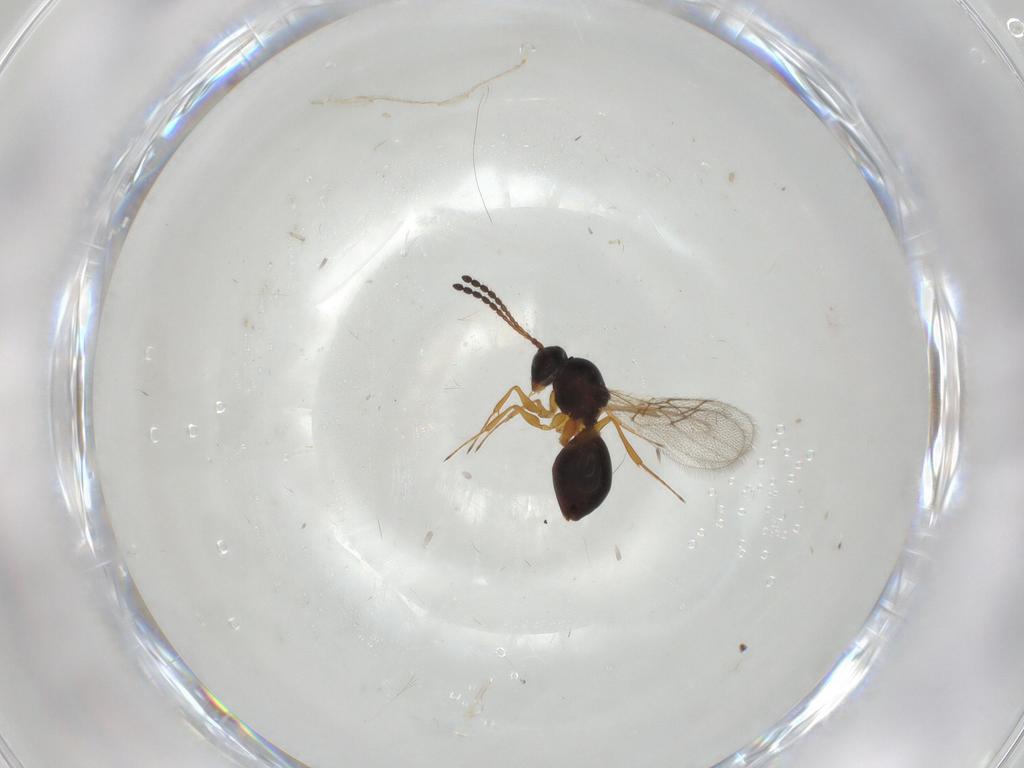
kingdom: Animalia
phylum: Arthropoda
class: Insecta
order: Hymenoptera
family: Figitidae
